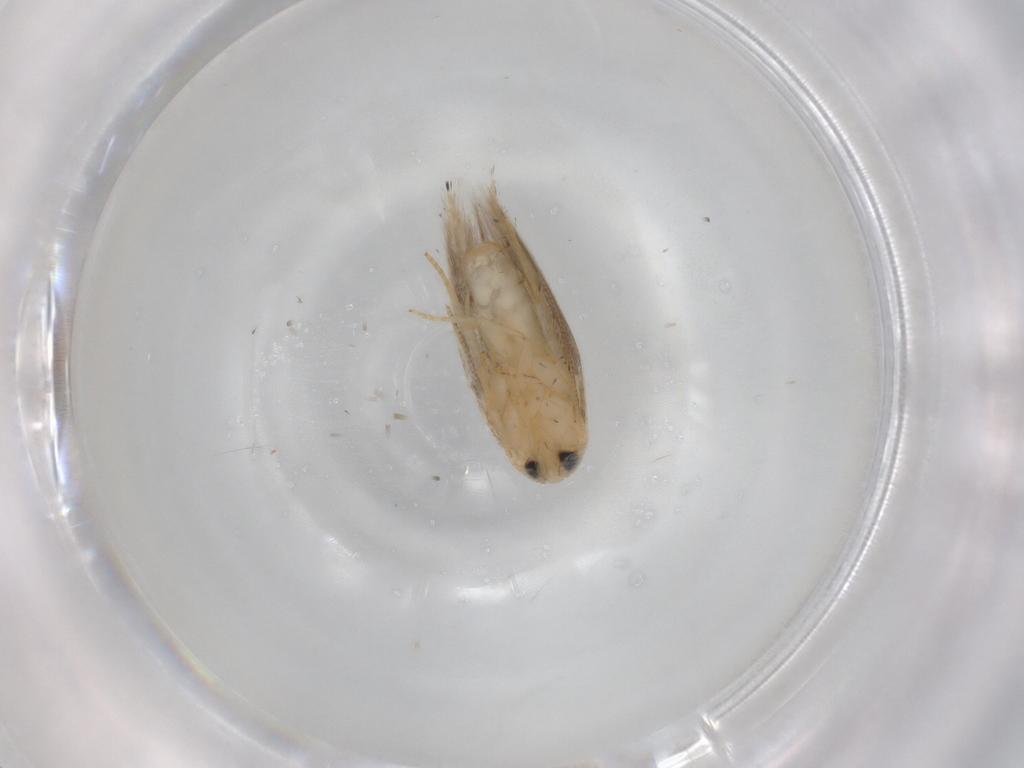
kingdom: Animalia
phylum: Arthropoda
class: Insecta
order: Lepidoptera
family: Opostegidae
